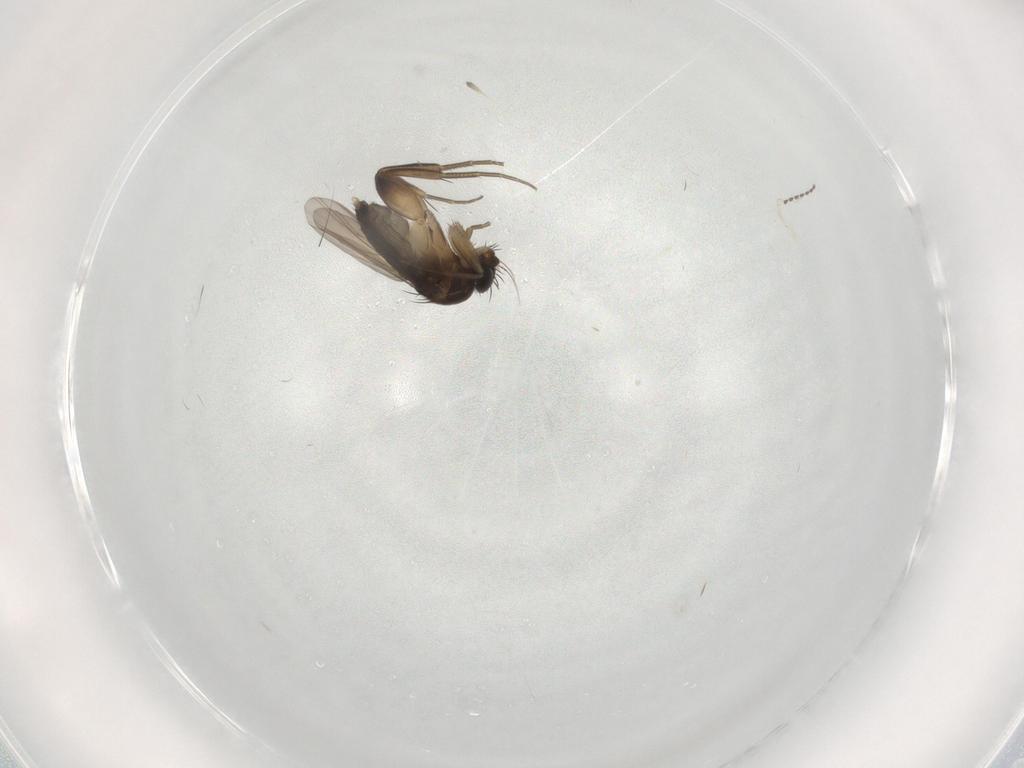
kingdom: Animalia
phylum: Arthropoda
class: Insecta
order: Diptera
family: Phoridae
